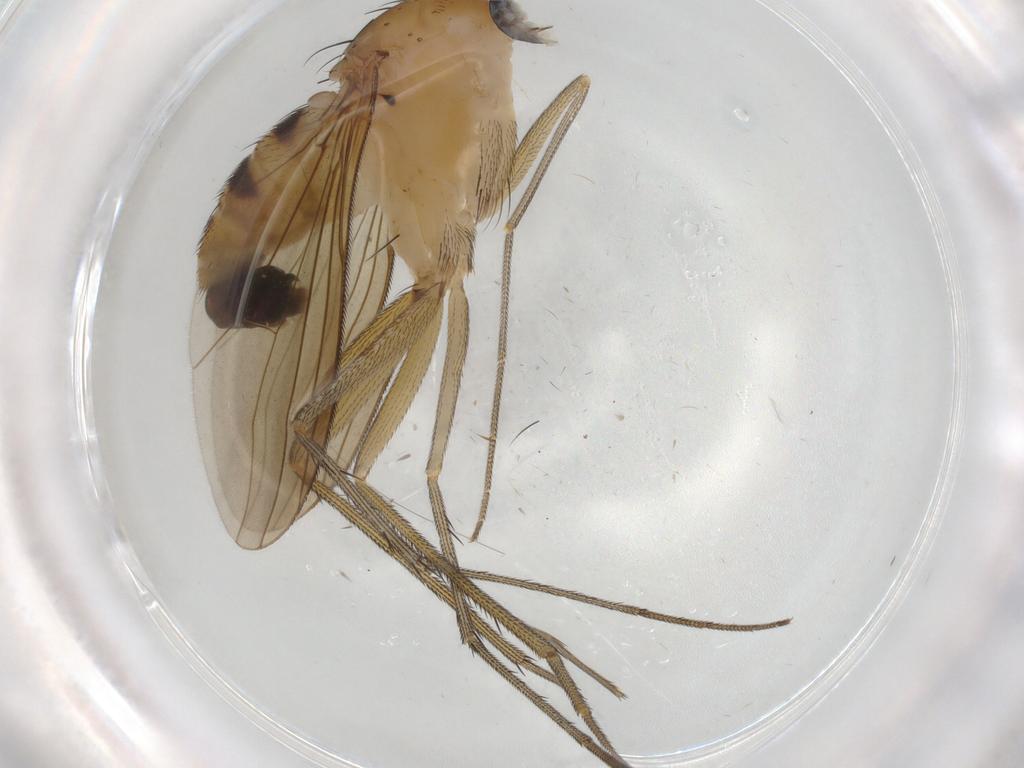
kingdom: Animalia
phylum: Arthropoda
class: Insecta
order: Diptera
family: Dolichopodidae
